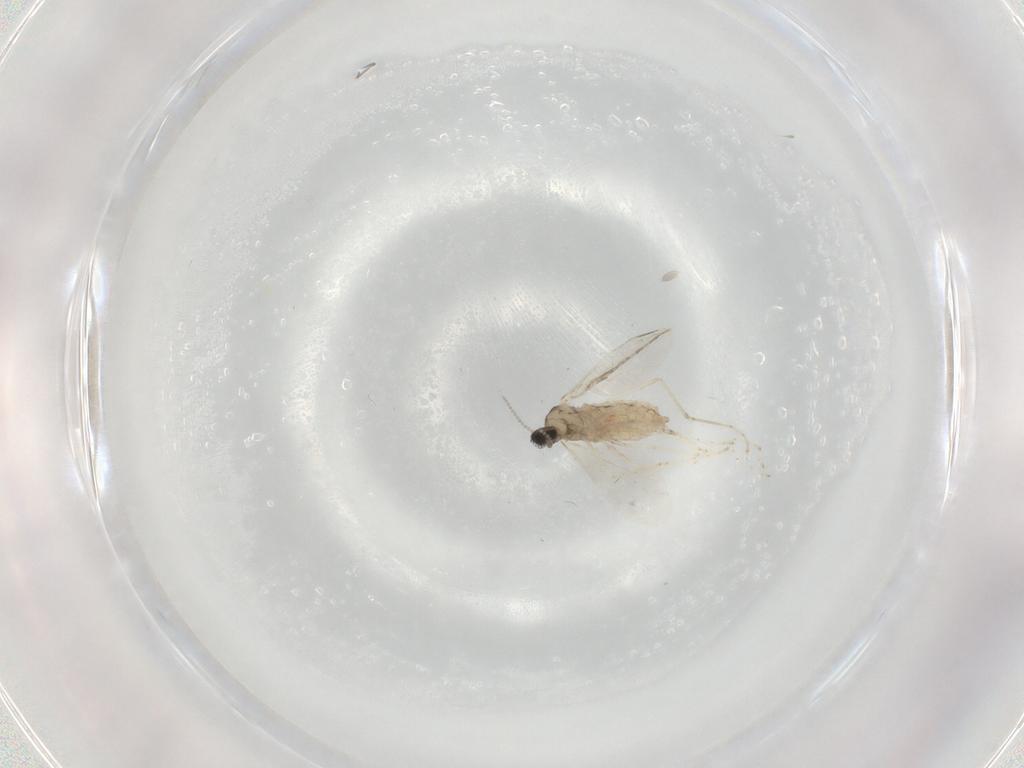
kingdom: Animalia
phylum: Arthropoda
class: Insecta
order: Diptera
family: Cecidomyiidae
